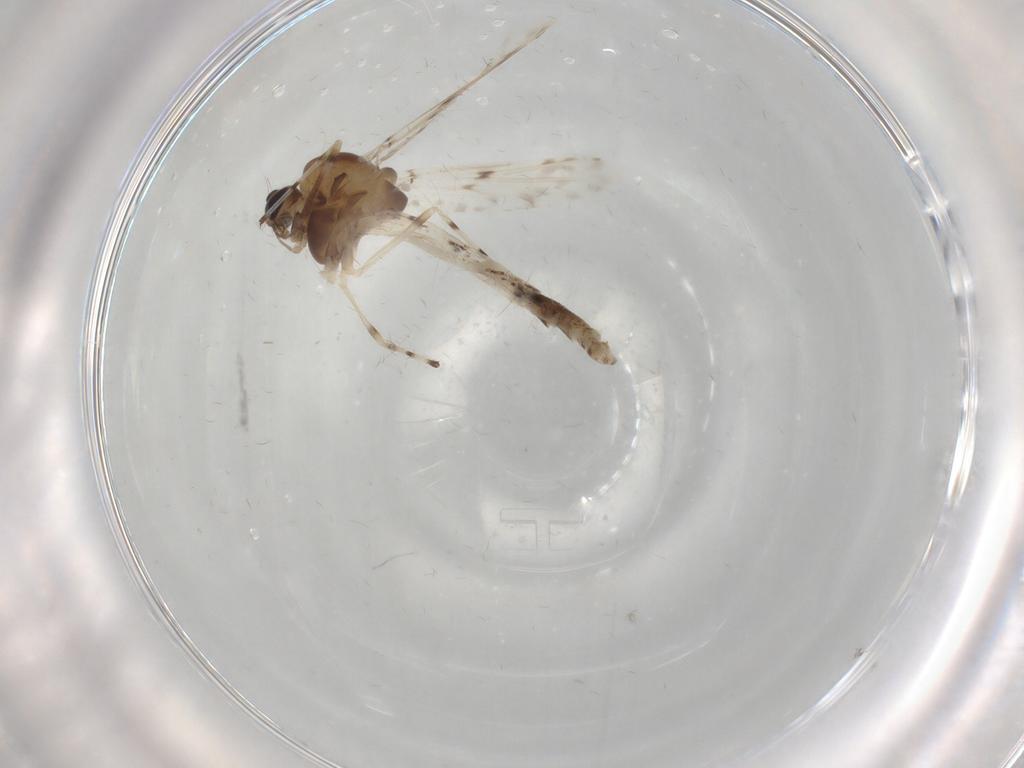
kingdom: Animalia
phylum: Arthropoda
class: Insecta
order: Diptera
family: Chironomidae
